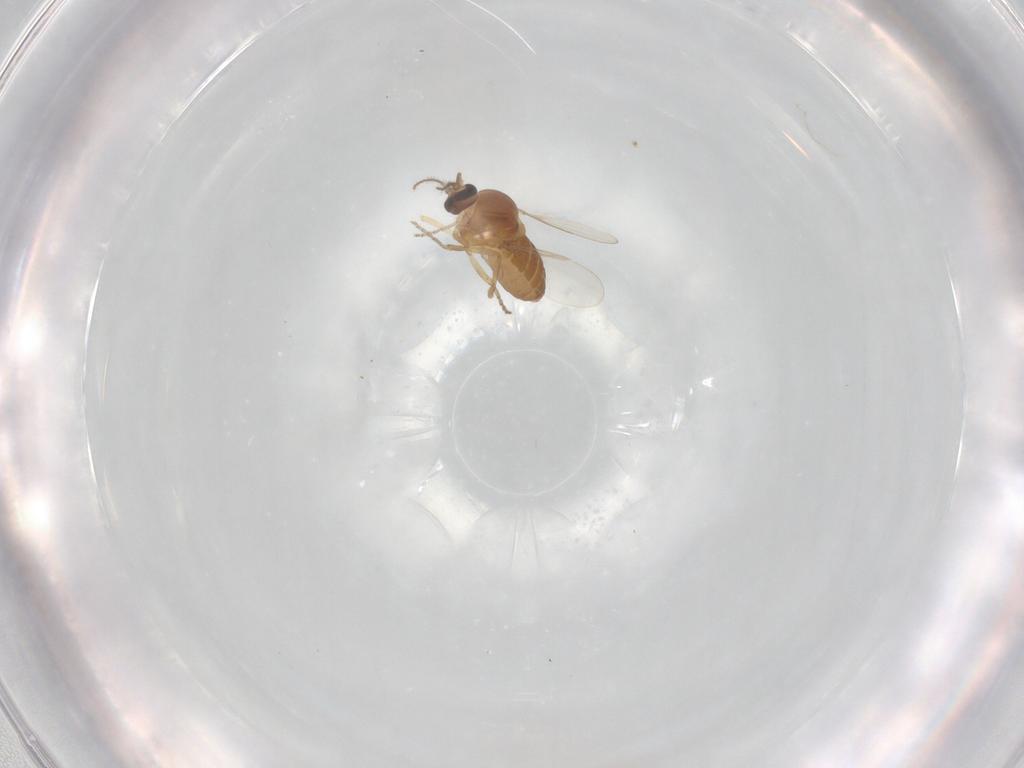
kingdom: Animalia
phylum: Arthropoda
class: Insecta
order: Diptera
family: Ceratopogonidae
